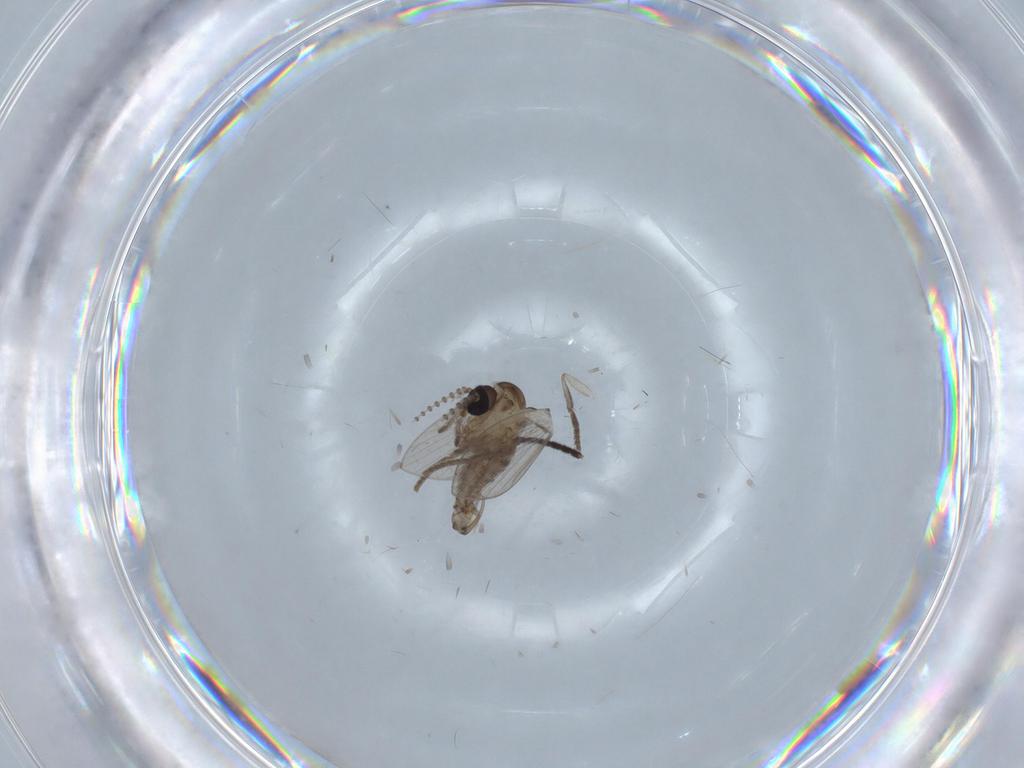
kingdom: Animalia
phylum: Arthropoda
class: Insecta
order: Diptera
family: Psychodidae
